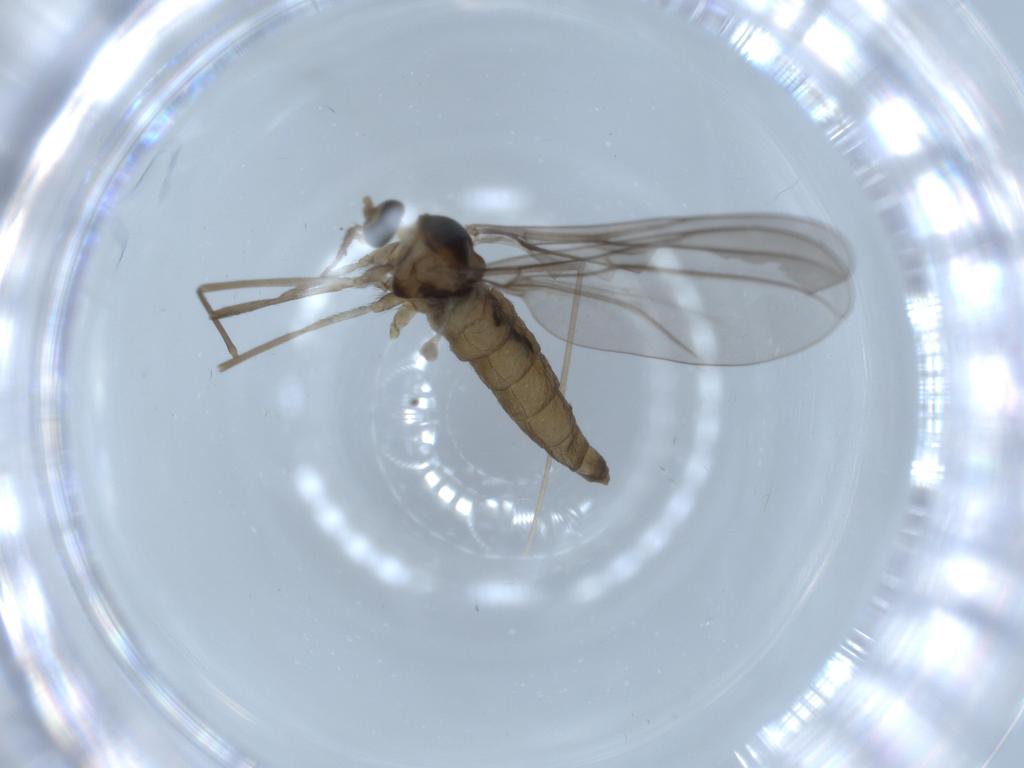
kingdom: Animalia
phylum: Arthropoda
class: Insecta
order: Diptera
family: Cecidomyiidae
